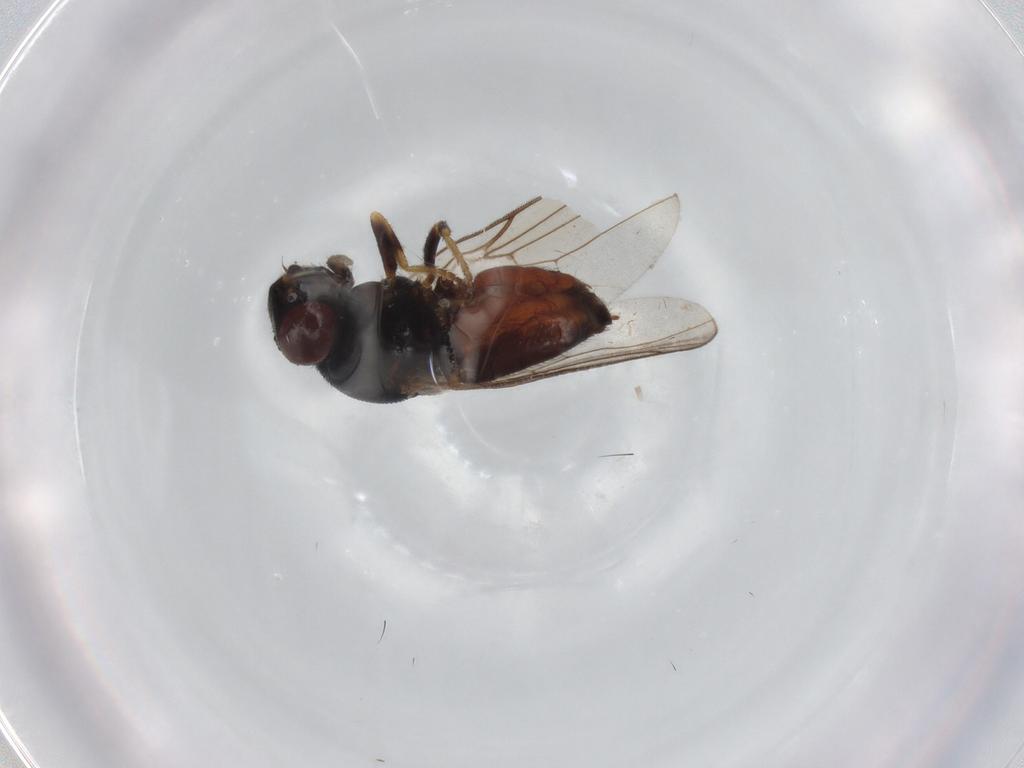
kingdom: Animalia
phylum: Arthropoda
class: Insecta
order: Diptera
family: Chloropidae
